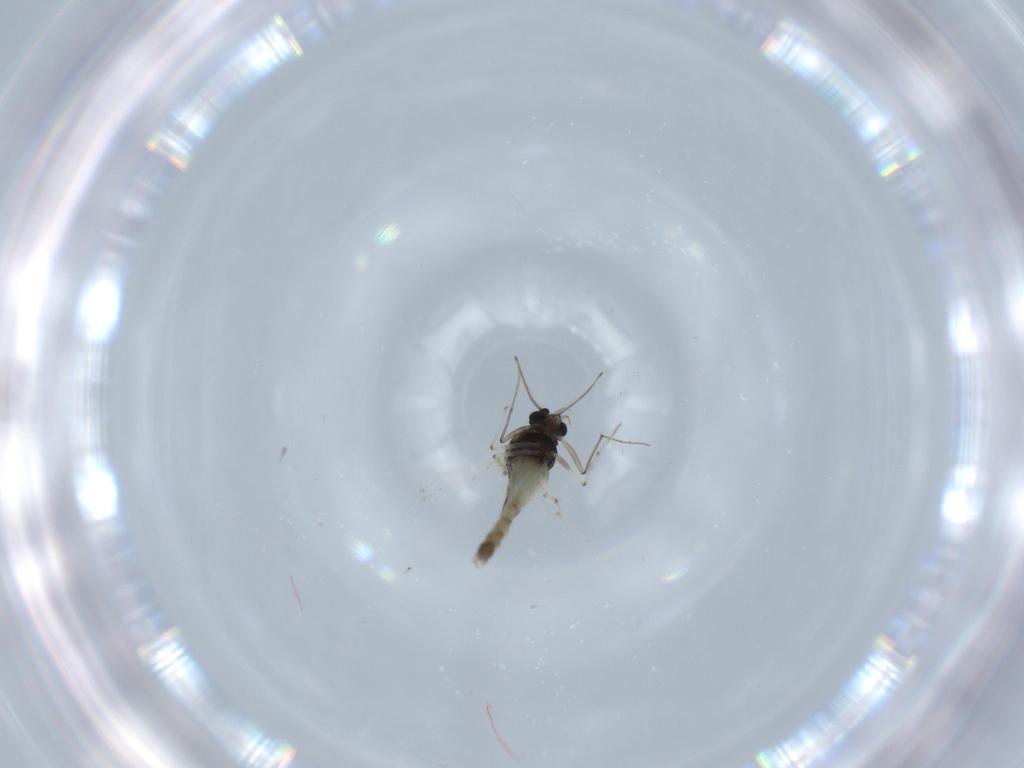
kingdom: Animalia
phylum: Arthropoda
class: Insecta
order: Diptera
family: Chironomidae
